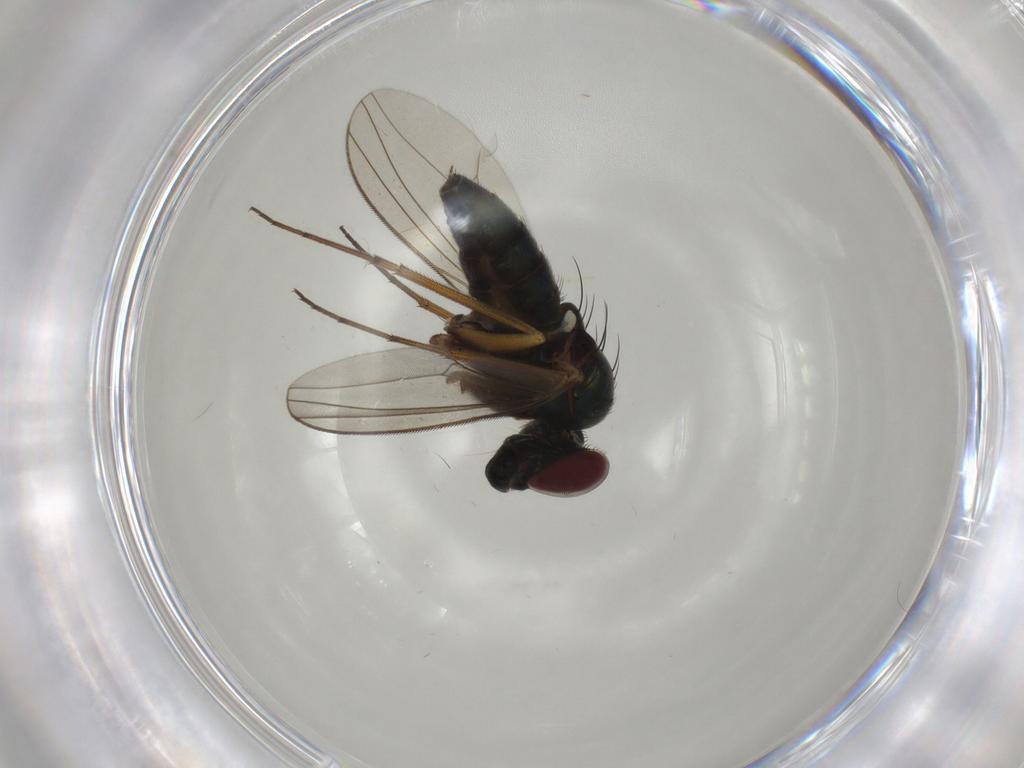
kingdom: Animalia
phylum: Arthropoda
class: Insecta
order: Diptera
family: Dolichopodidae
